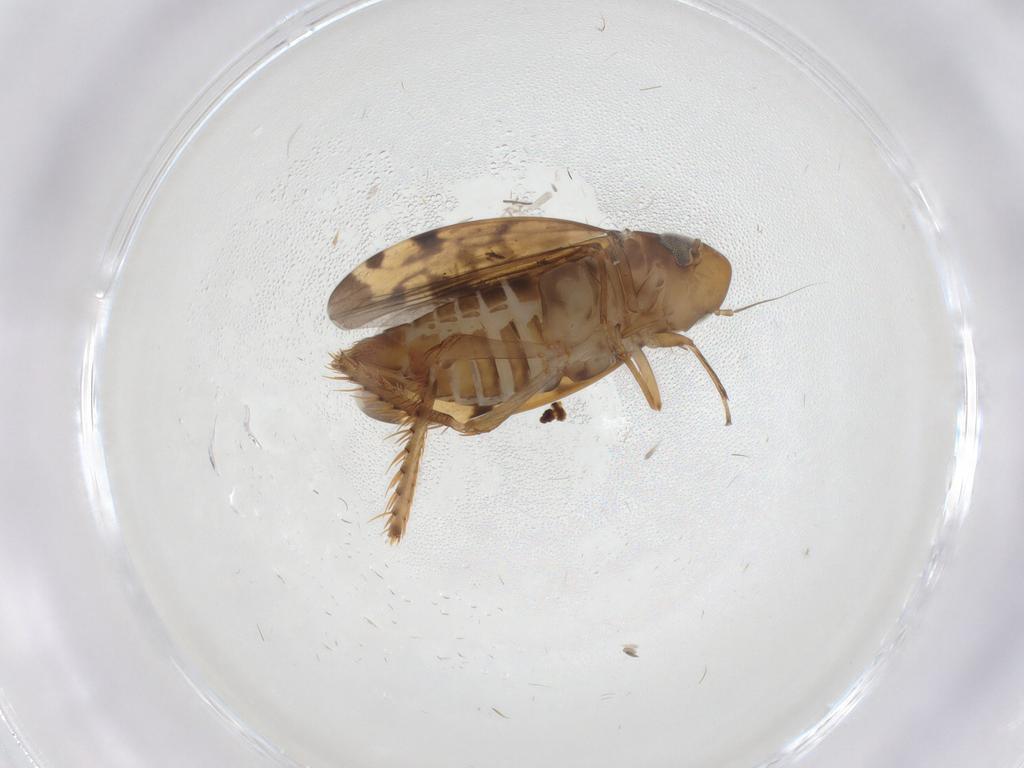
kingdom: Animalia
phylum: Arthropoda
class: Insecta
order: Hemiptera
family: Cicadellidae
